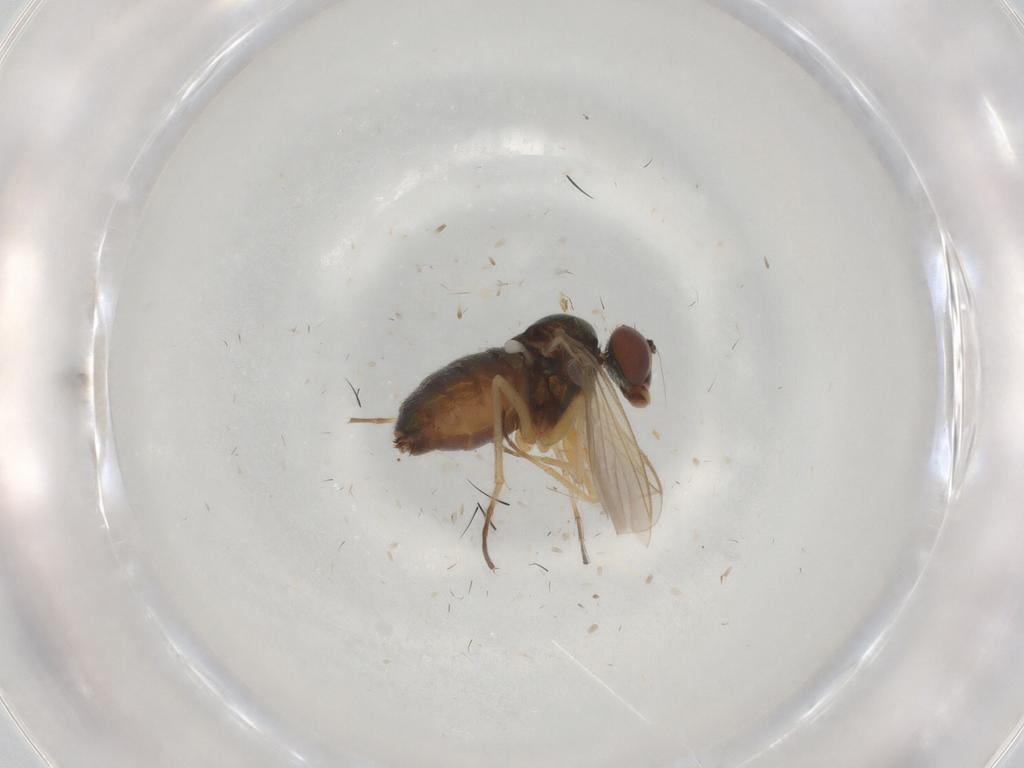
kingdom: Animalia
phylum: Arthropoda
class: Insecta
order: Diptera
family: Dolichopodidae
